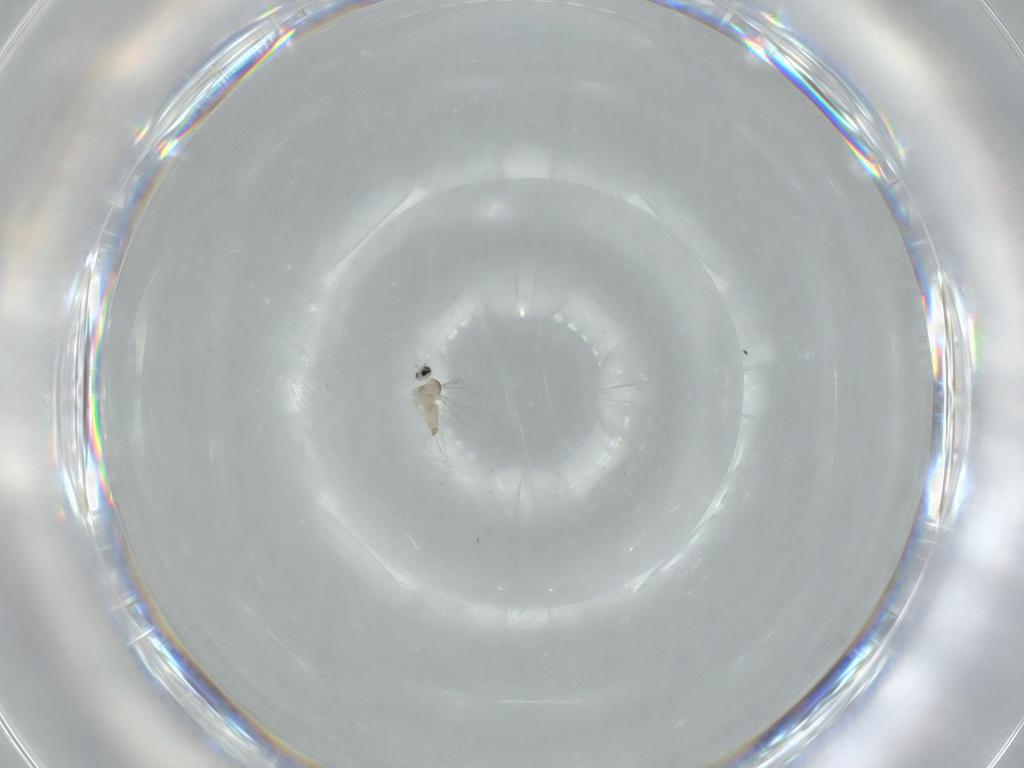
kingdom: Animalia
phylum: Arthropoda
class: Insecta
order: Diptera
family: Cecidomyiidae
